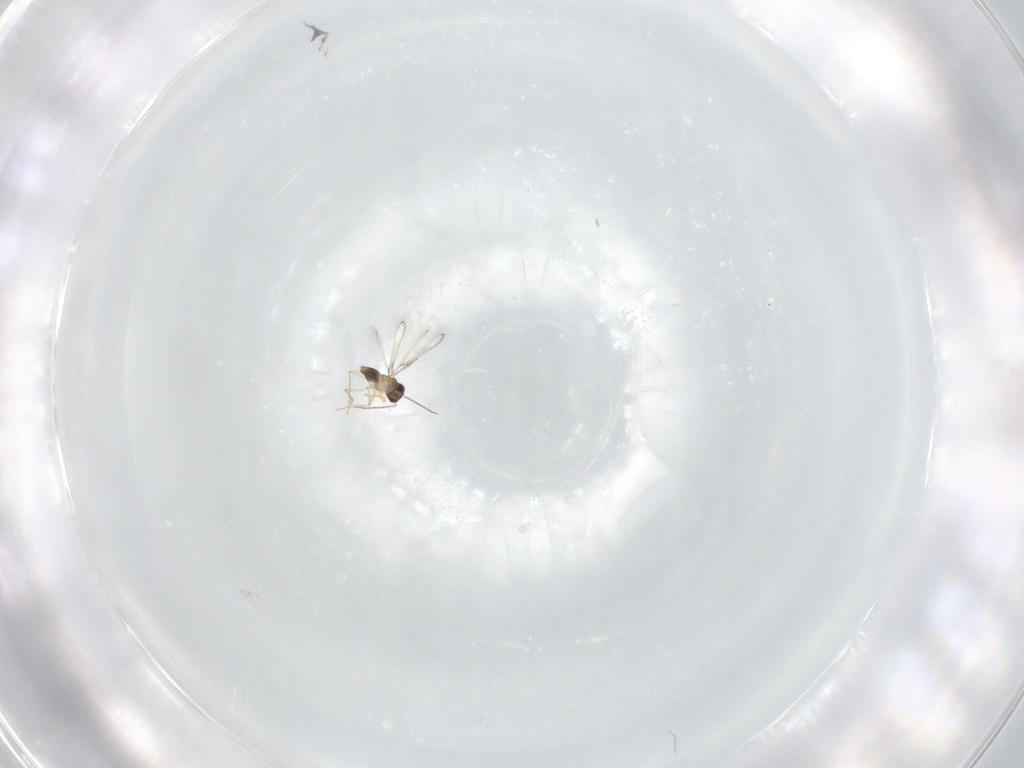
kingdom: Animalia
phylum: Arthropoda
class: Insecta
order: Hymenoptera
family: Mymaridae
